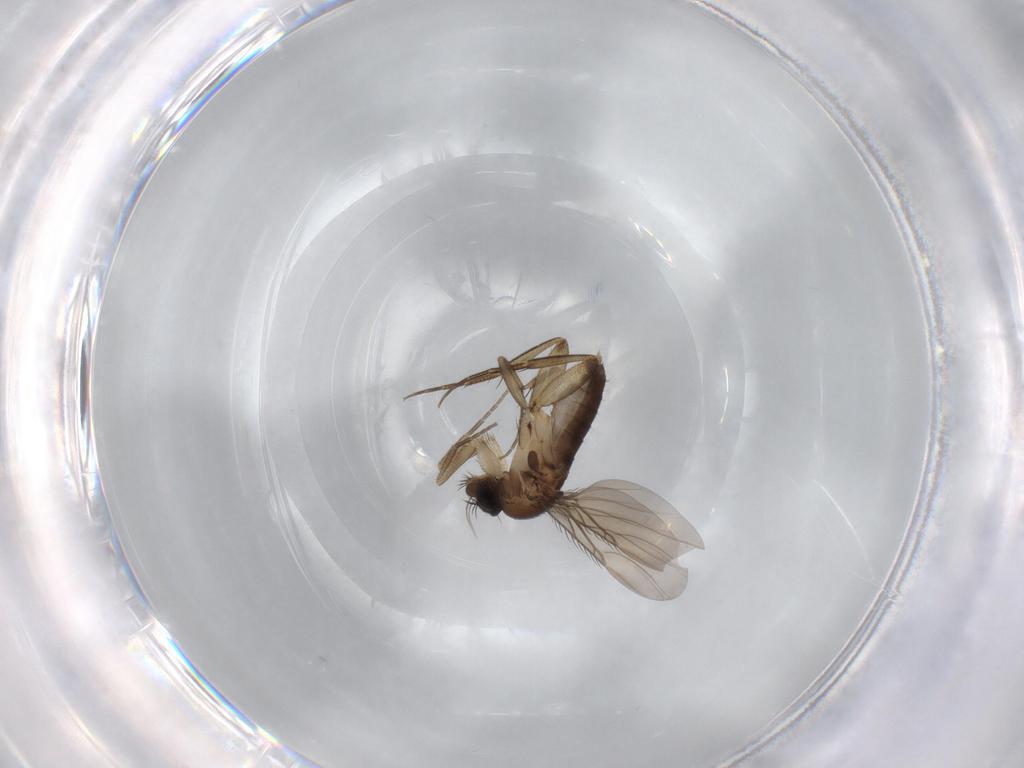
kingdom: Animalia
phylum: Arthropoda
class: Insecta
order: Diptera
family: Phoridae
